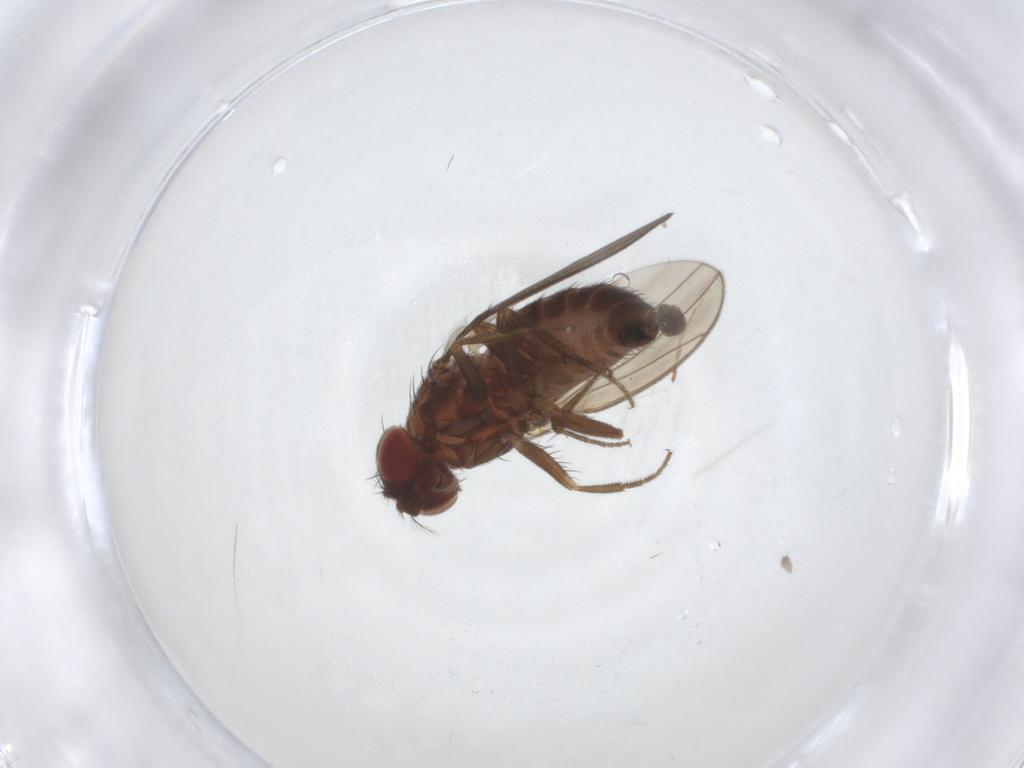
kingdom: Animalia
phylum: Arthropoda
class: Insecta
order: Diptera
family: Drosophilidae
